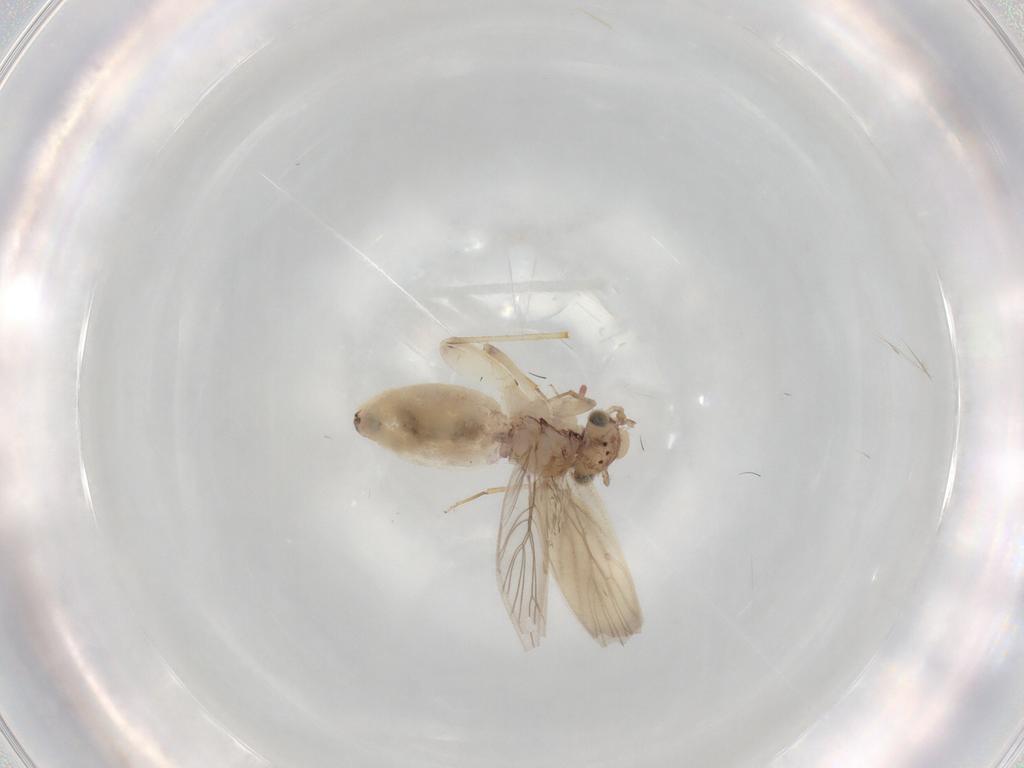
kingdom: Animalia
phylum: Arthropoda
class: Insecta
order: Psocodea
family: Lepidopsocidae
